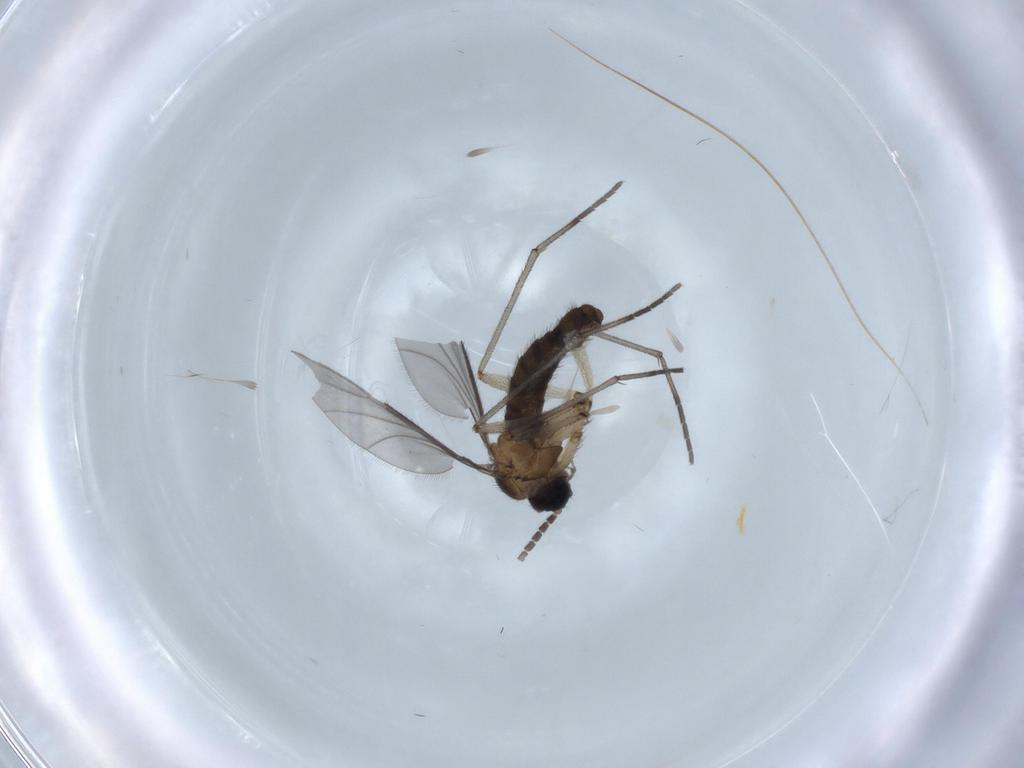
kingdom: Animalia
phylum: Arthropoda
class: Insecta
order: Diptera
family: Sciaridae
